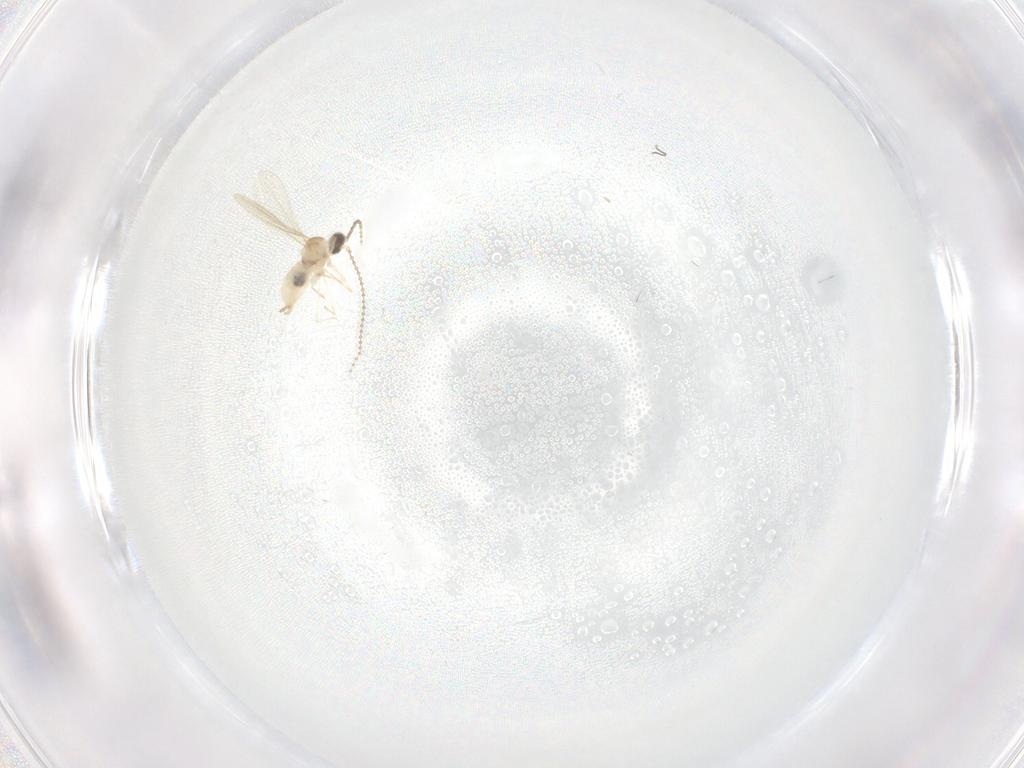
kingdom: Animalia
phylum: Arthropoda
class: Insecta
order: Diptera
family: Cecidomyiidae
